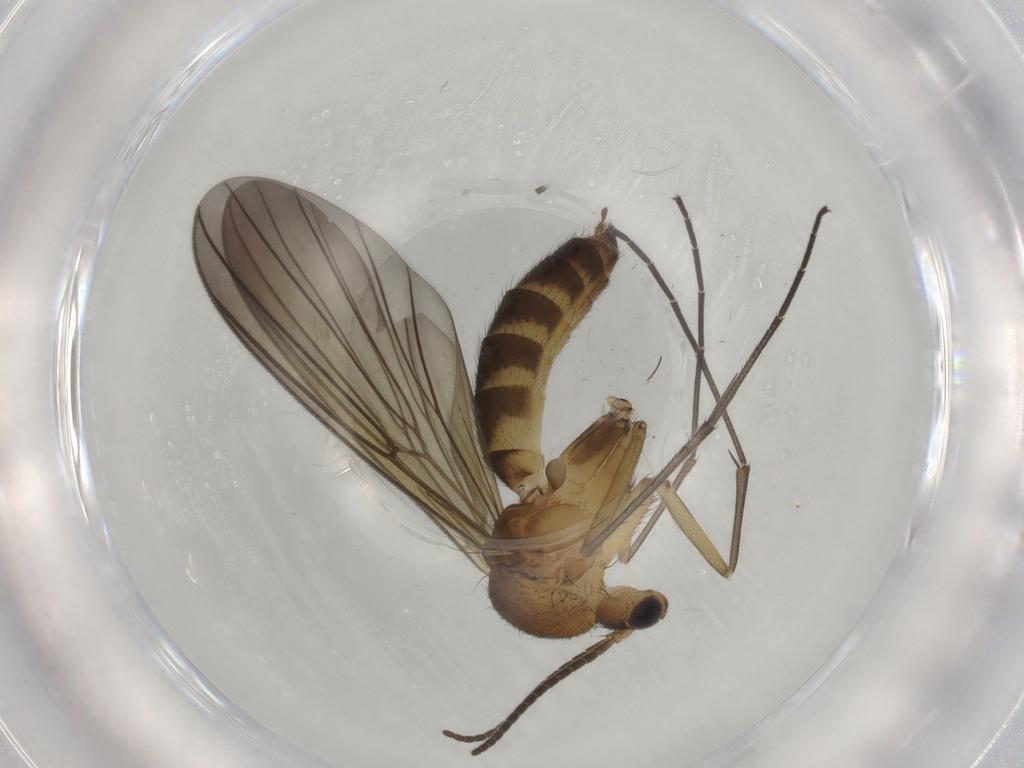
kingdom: Animalia
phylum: Arthropoda
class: Insecta
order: Diptera
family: Mycetophilidae
